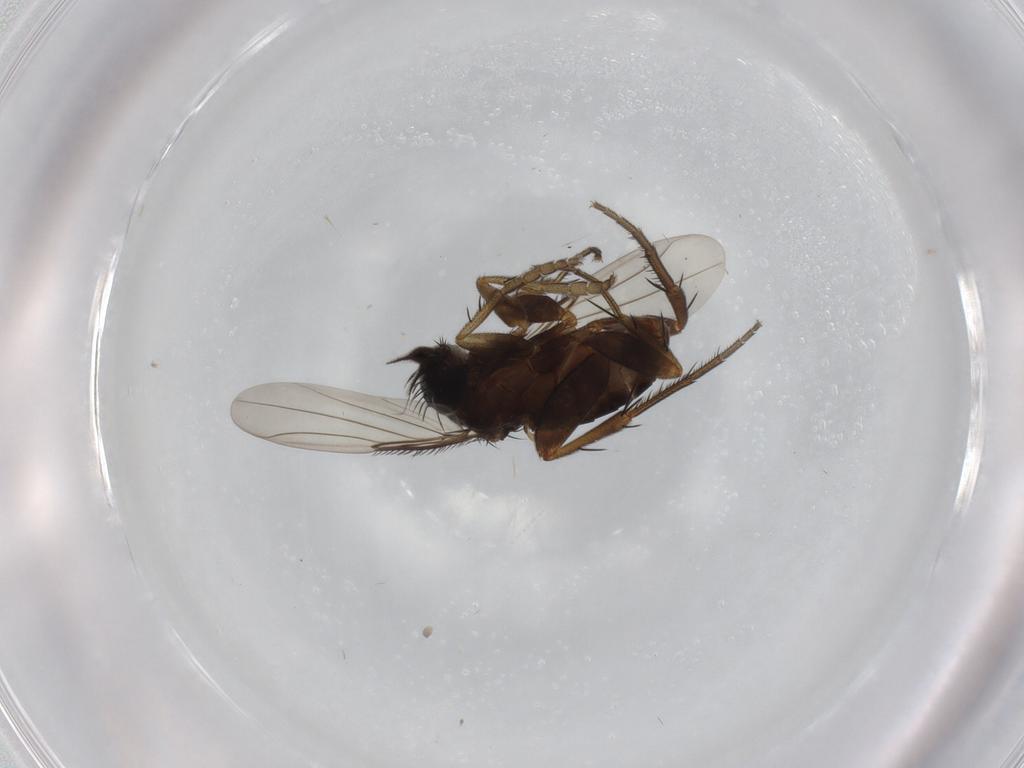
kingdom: Animalia
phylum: Arthropoda
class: Insecta
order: Diptera
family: Phoridae
